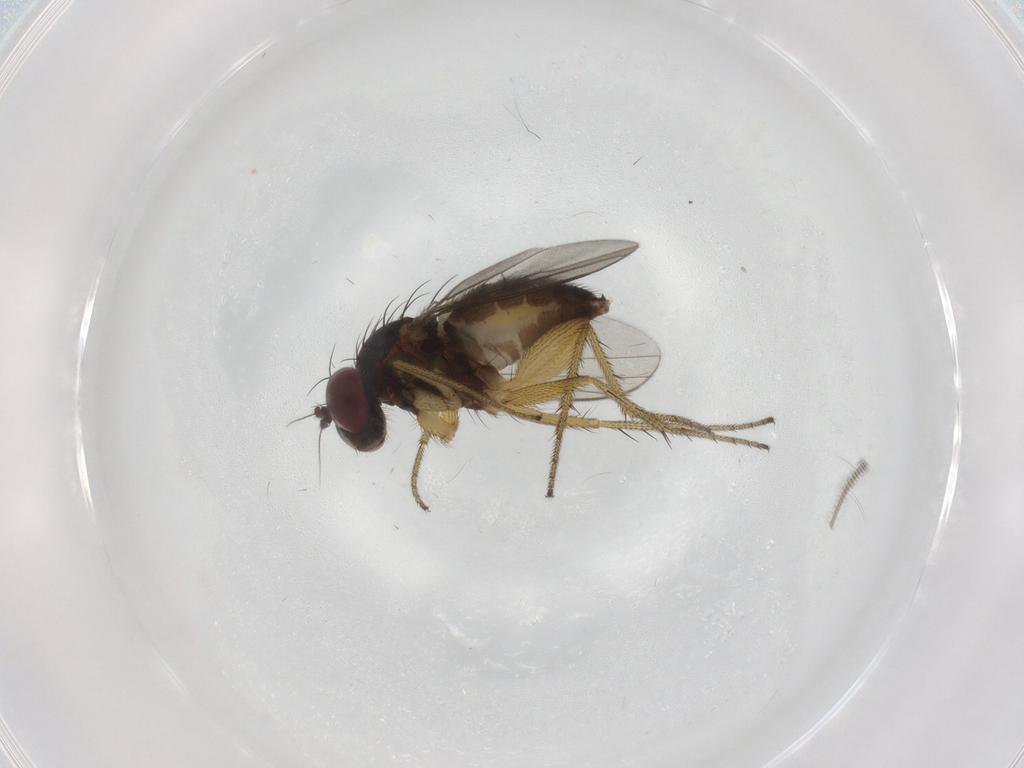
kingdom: Animalia
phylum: Arthropoda
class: Insecta
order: Diptera
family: Dolichopodidae
